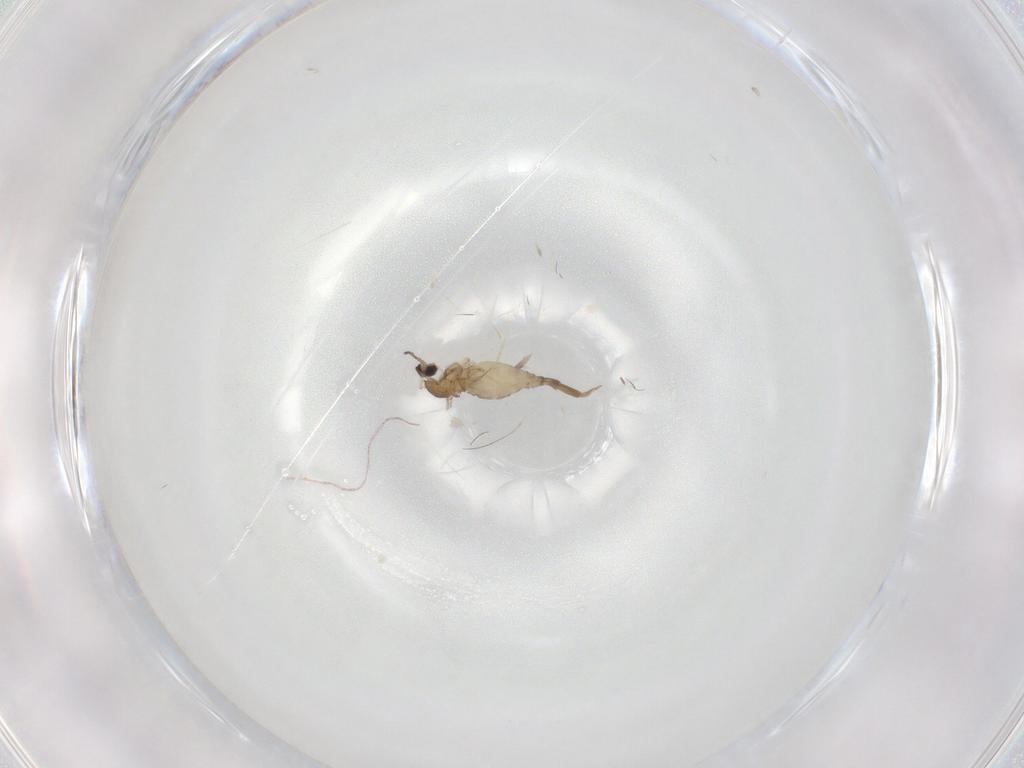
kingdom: Animalia
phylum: Arthropoda
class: Insecta
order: Diptera
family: Cecidomyiidae
